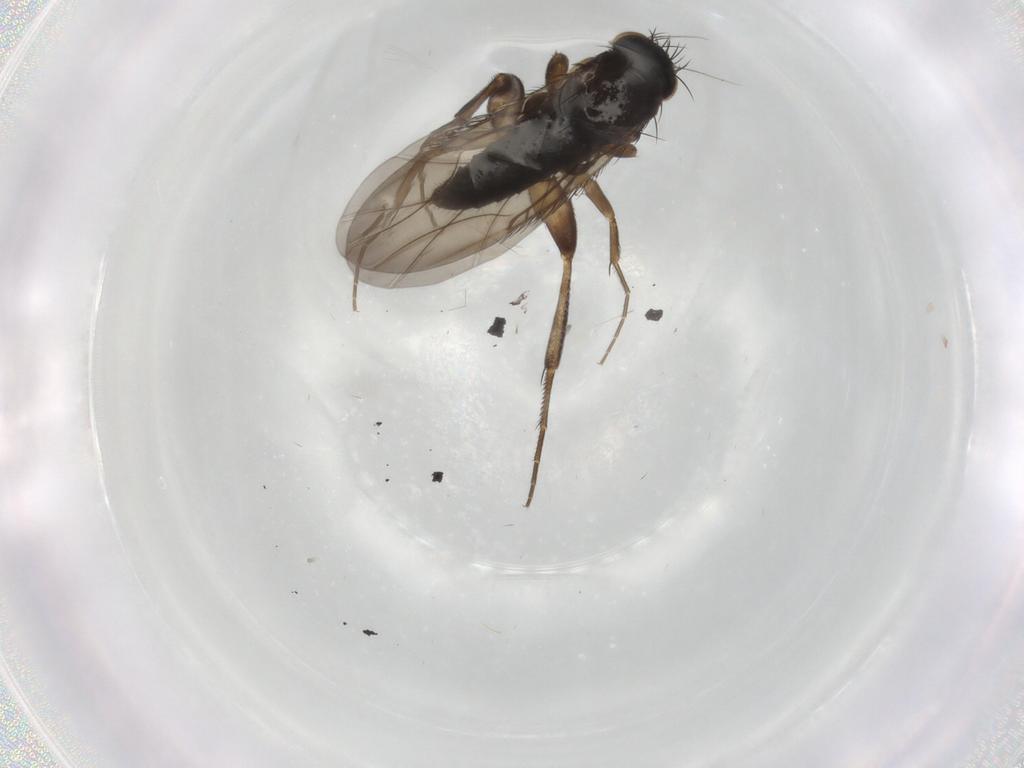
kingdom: Animalia
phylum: Arthropoda
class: Insecta
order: Diptera
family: Phoridae
